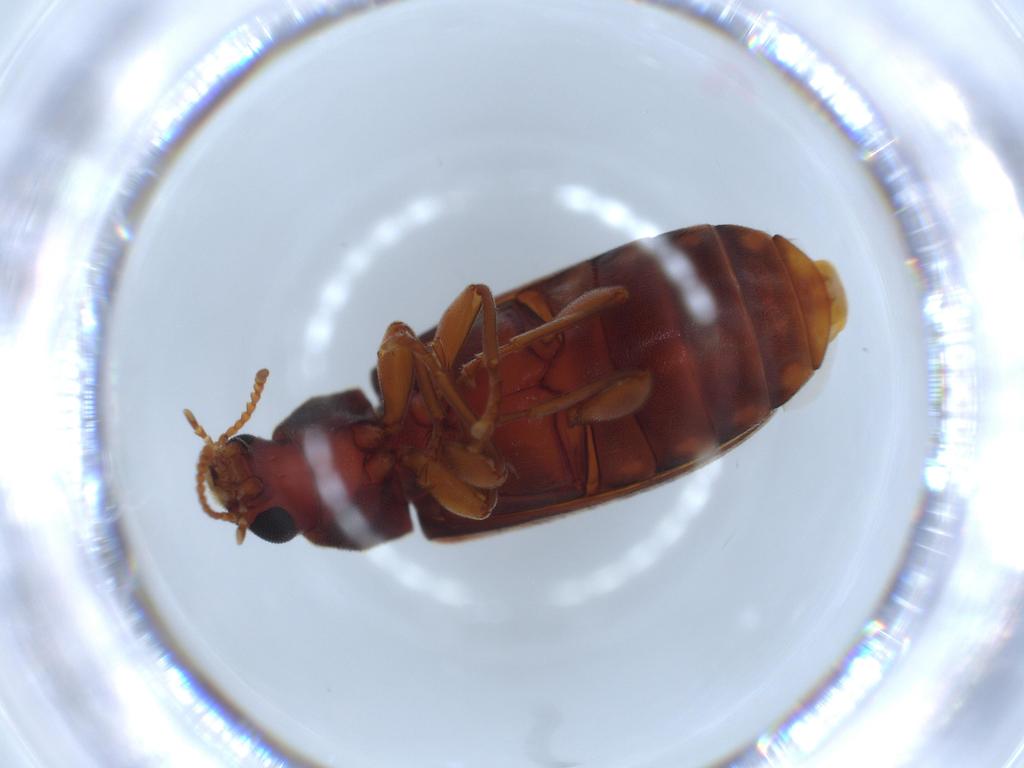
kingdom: Animalia
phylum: Arthropoda
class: Insecta
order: Coleoptera
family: Mycteridae
